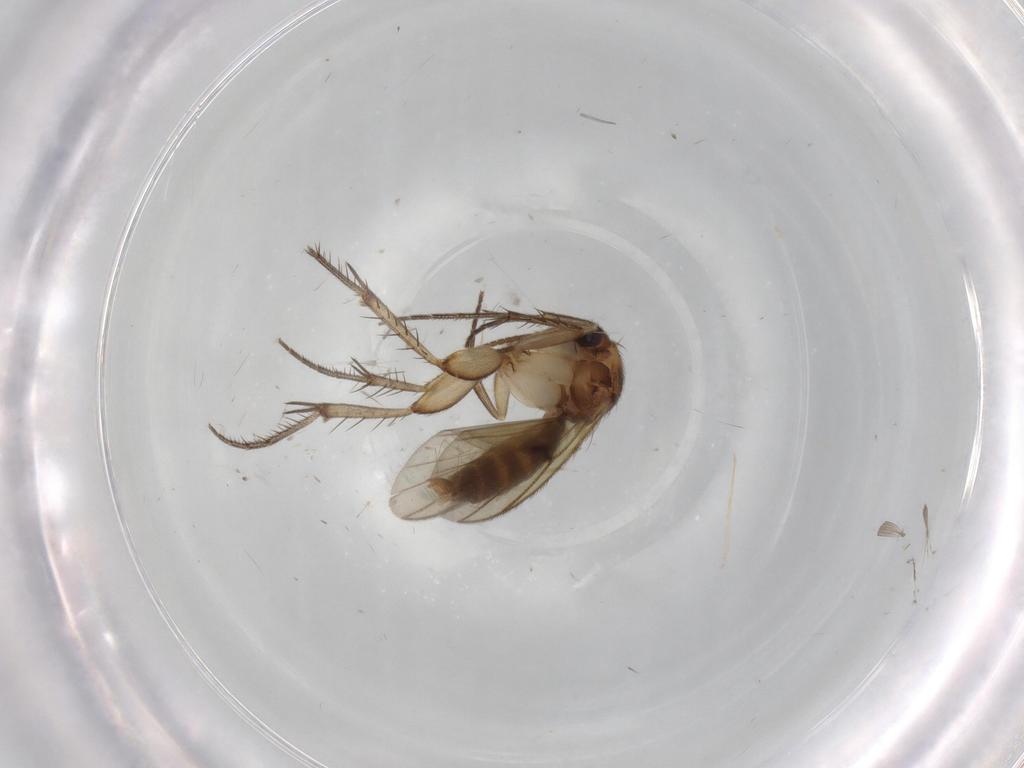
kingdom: Animalia
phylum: Arthropoda
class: Insecta
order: Diptera
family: Mycetophilidae
